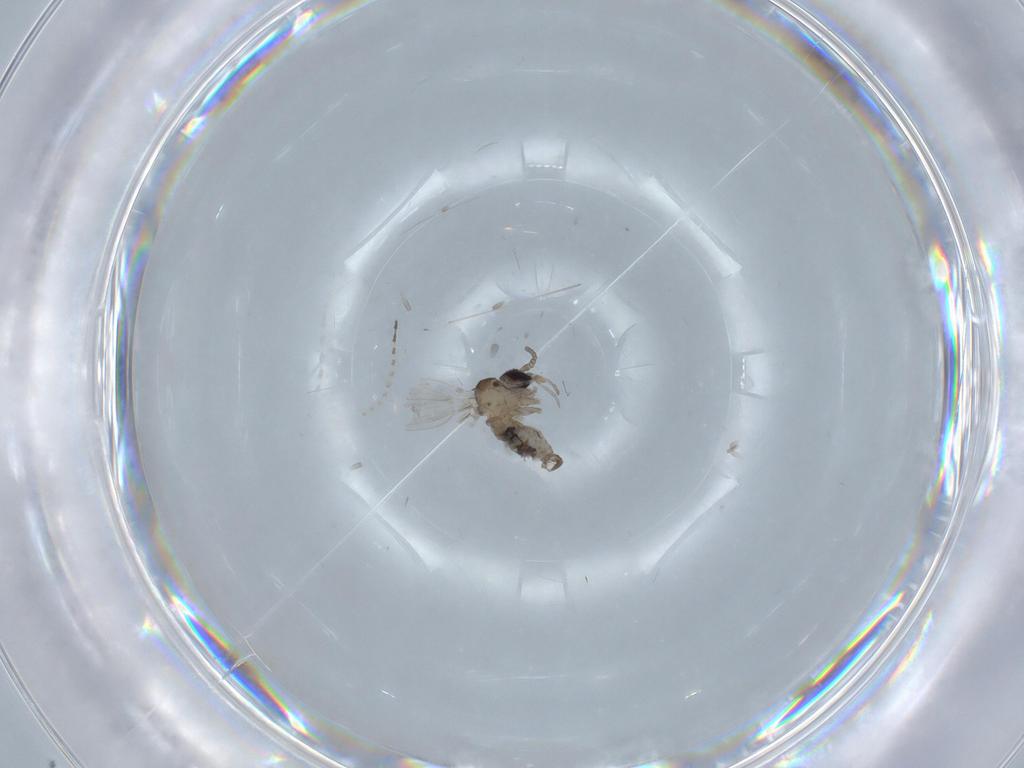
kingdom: Animalia
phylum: Arthropoda
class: Insecta
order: Diptera
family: Psychodidae
